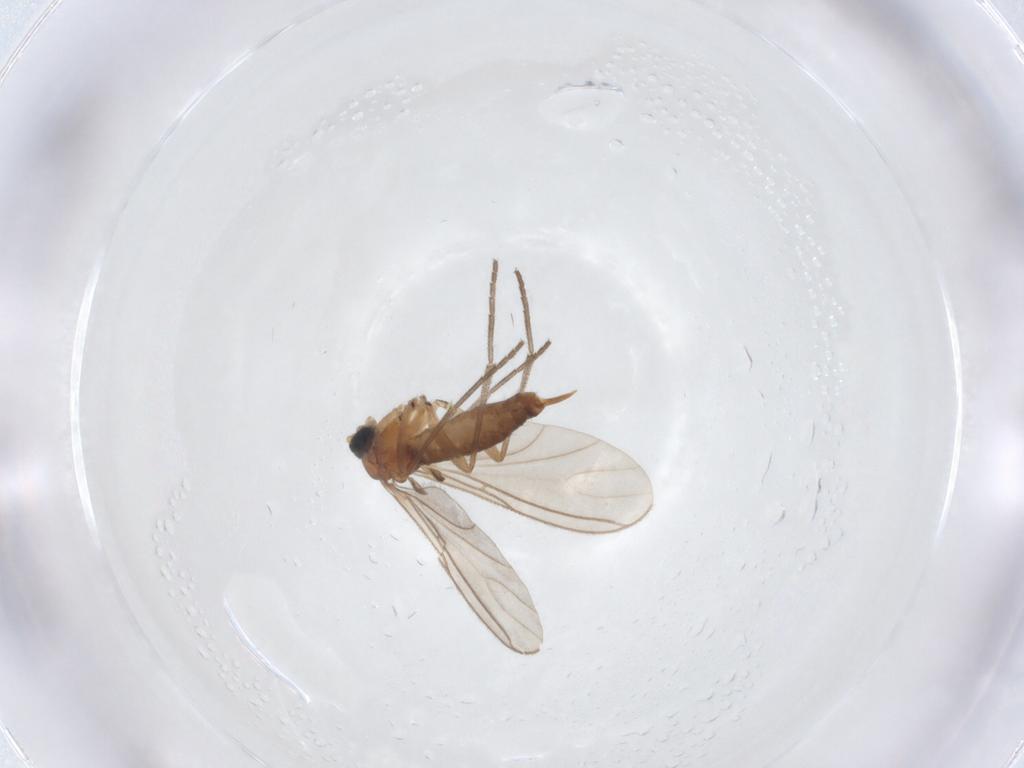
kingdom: Animalia
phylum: Arthropoda
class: Insecta
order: Diptera
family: Sciaridae
